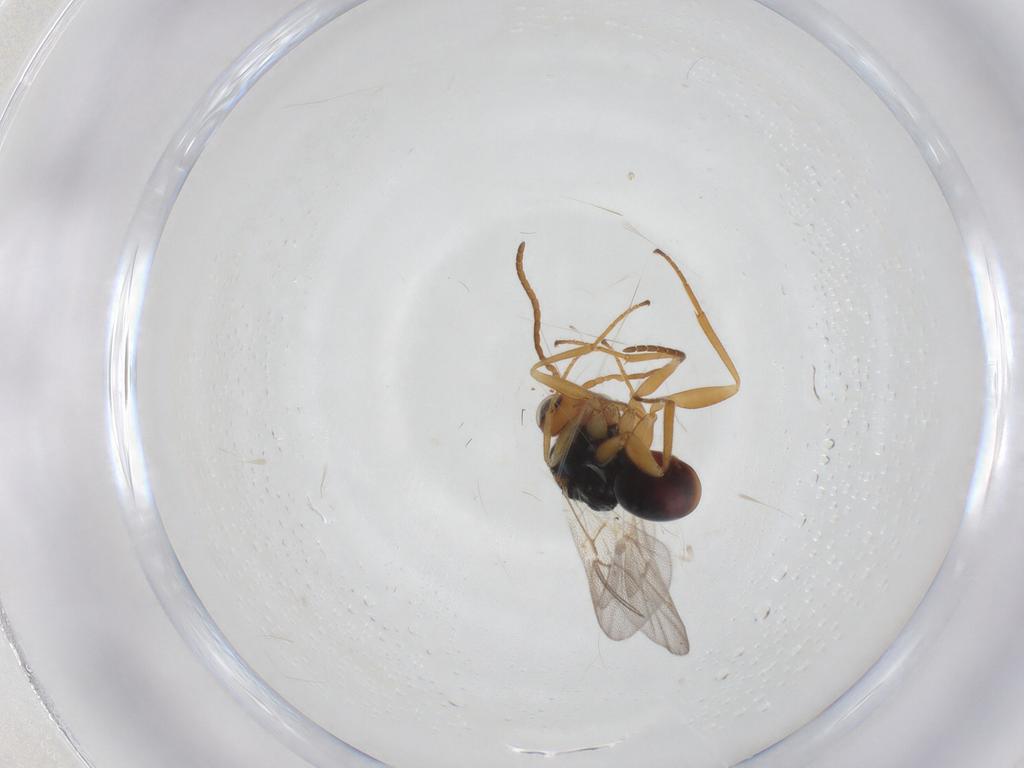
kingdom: Animalia
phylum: Arthropoda
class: Insecta
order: Hymenoptera
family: Cynipidae
